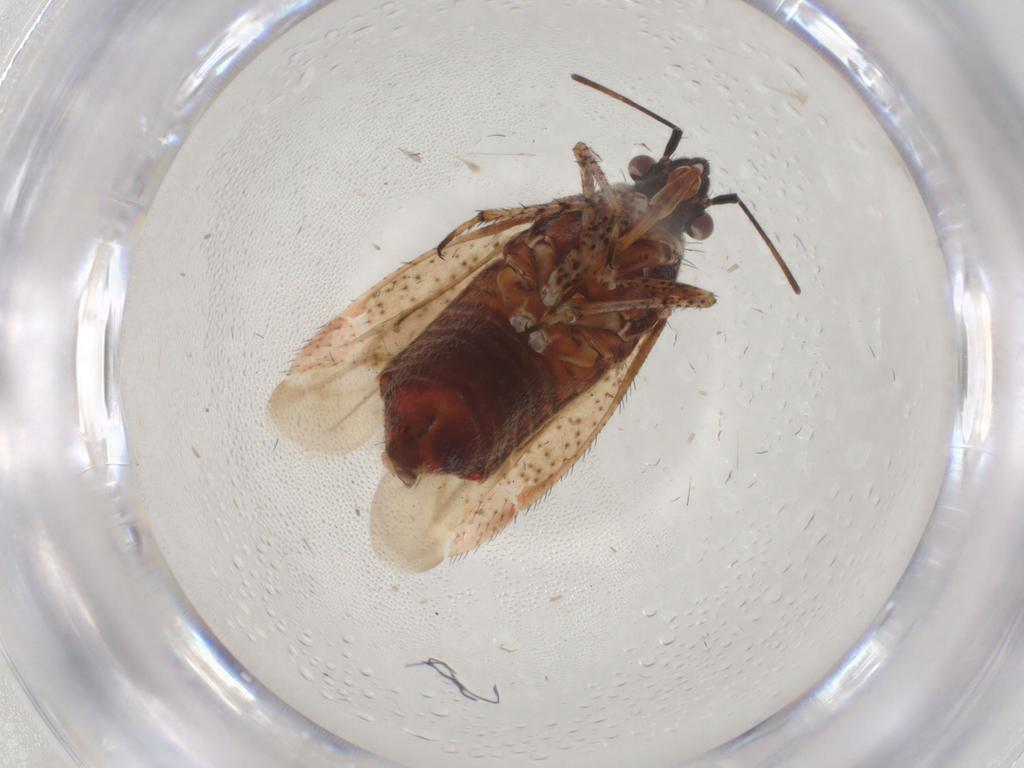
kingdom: Animalia
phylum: Arthropoda
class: Insecta
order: Hemiptera
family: Miridae
